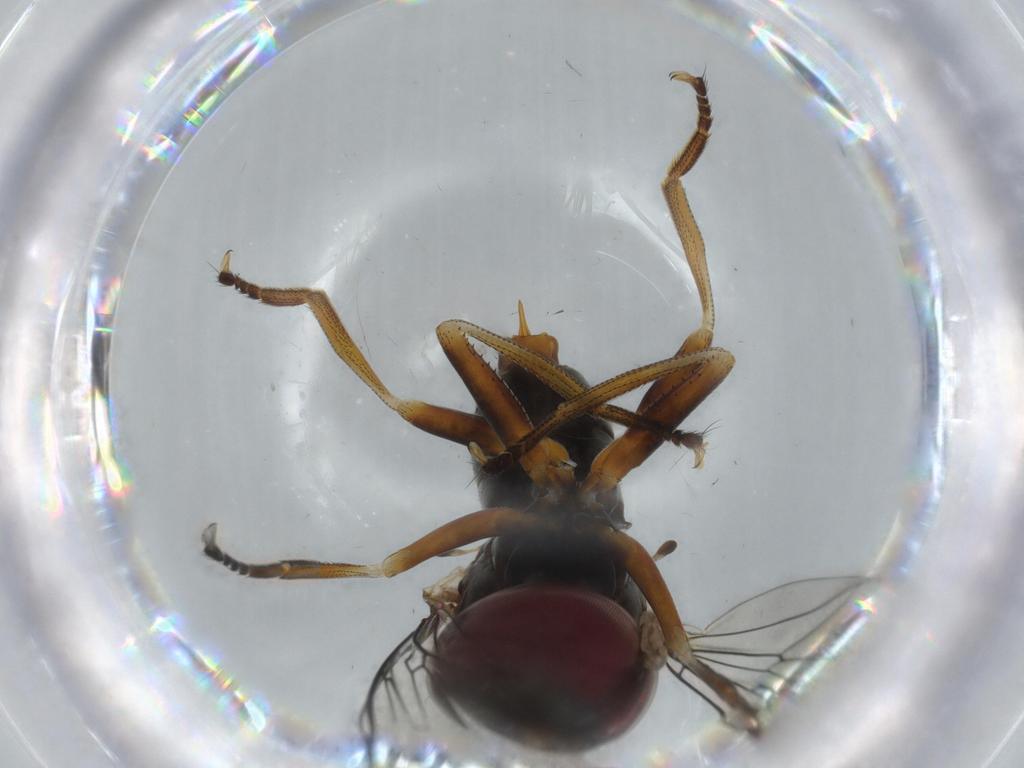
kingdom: Animalia
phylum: Arthropoda
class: Insecta
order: Diptera
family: Cecidomyiidae
